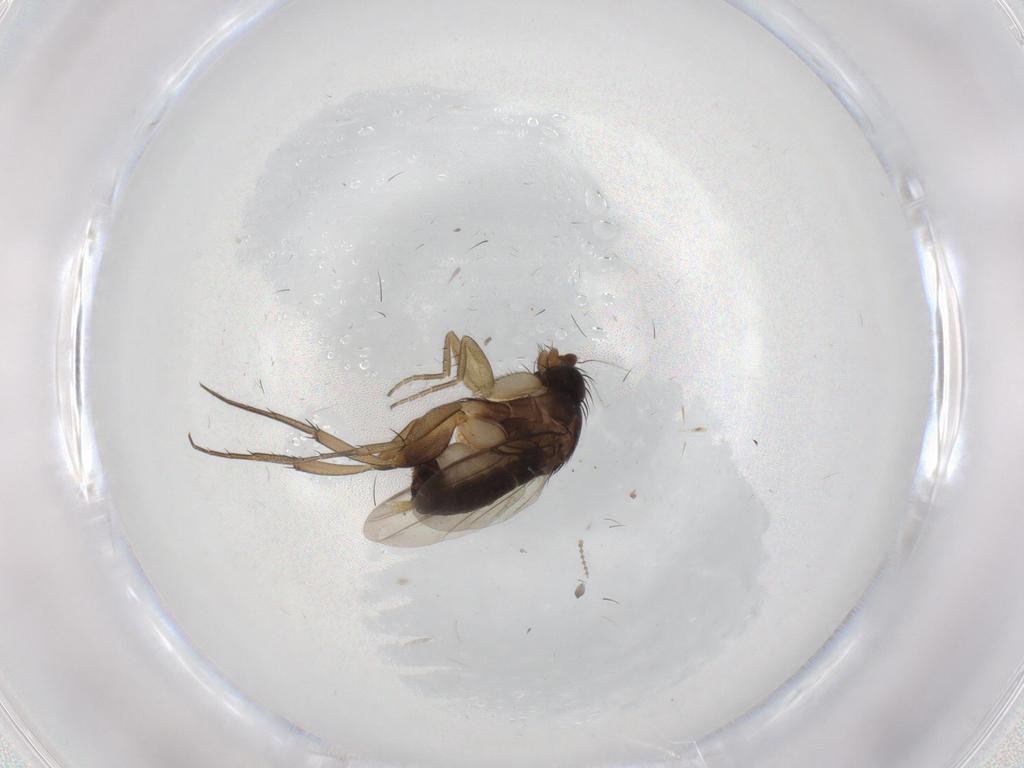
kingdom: Animalia
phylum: Arthropoda
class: Insecta
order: Diptera
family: Phoridae
